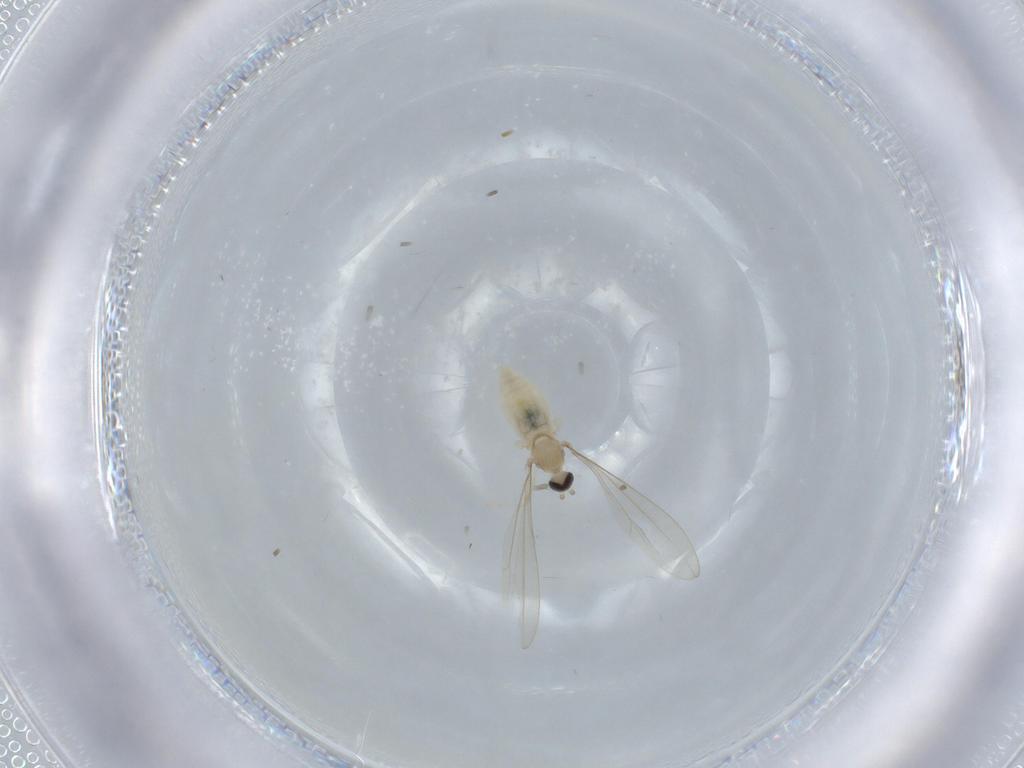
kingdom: Animalia
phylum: Arthropoda
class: Insecta
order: Diptera
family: Cecidomyiidae
